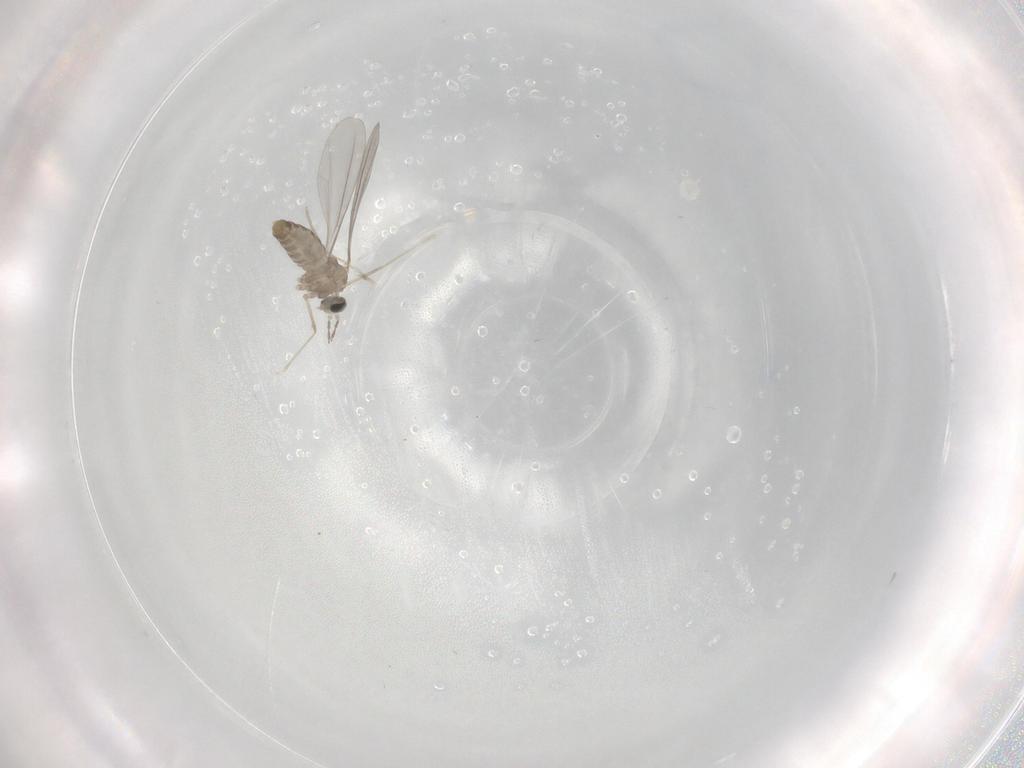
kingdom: Animalia
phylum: Arthropoda
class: Insecta
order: Diptera
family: Cecidomyiidae
